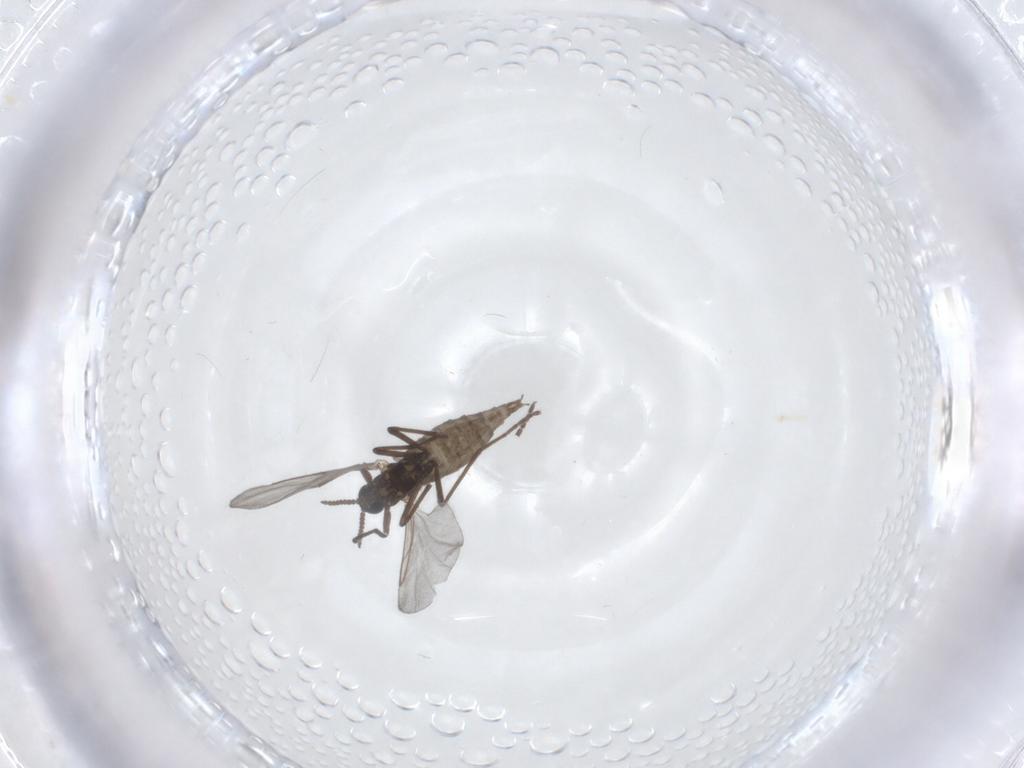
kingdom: Animalia
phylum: Arthropoda
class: Insecta
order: Diptera
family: Cecidomyiidae
